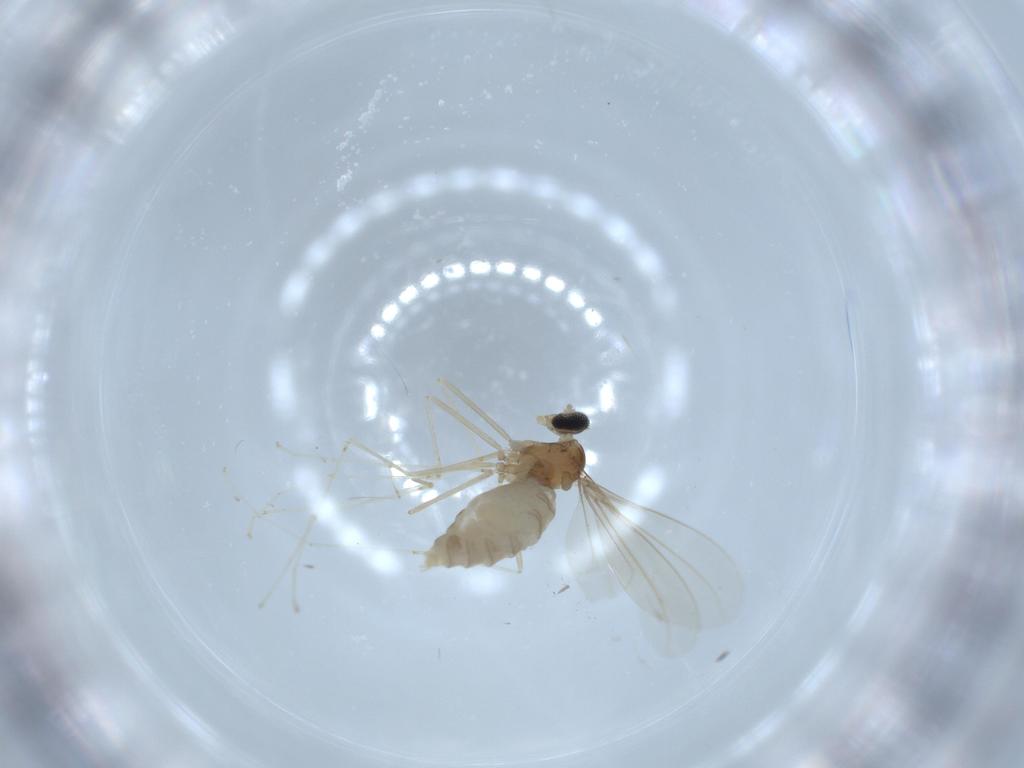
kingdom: Animalia
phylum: Arthropoda
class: Insecta
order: Diptera
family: Cecidomyiidae
